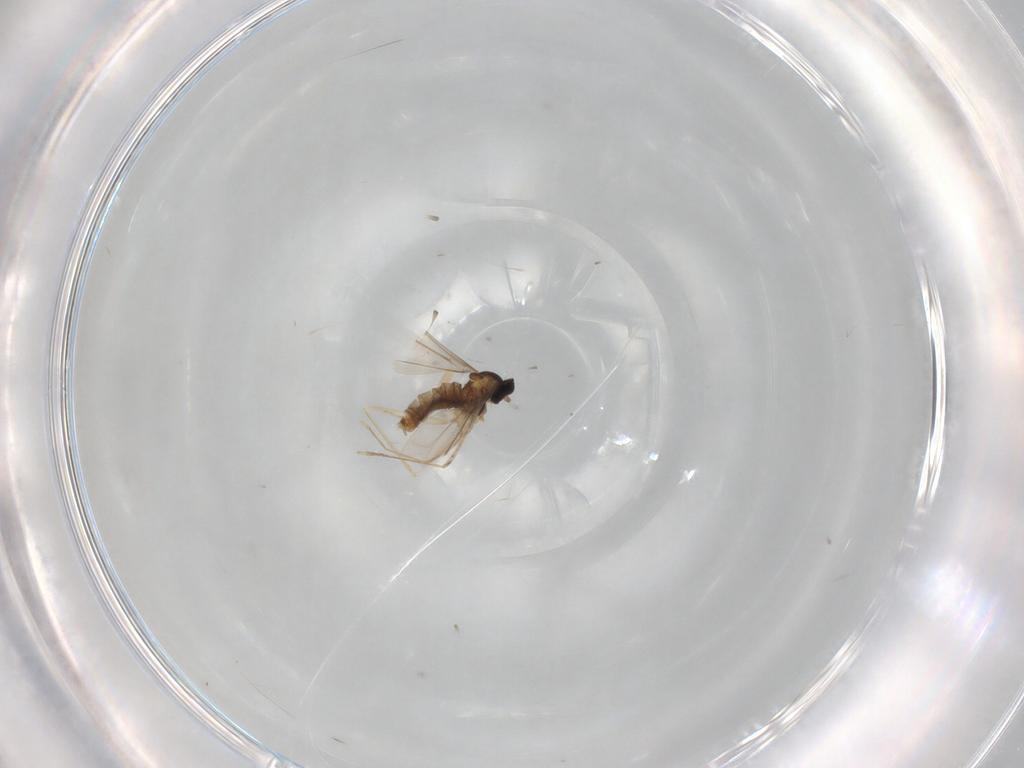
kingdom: Animalia
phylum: Arthropoda
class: Insecta
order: Diptera
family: Cecidomyiidae
